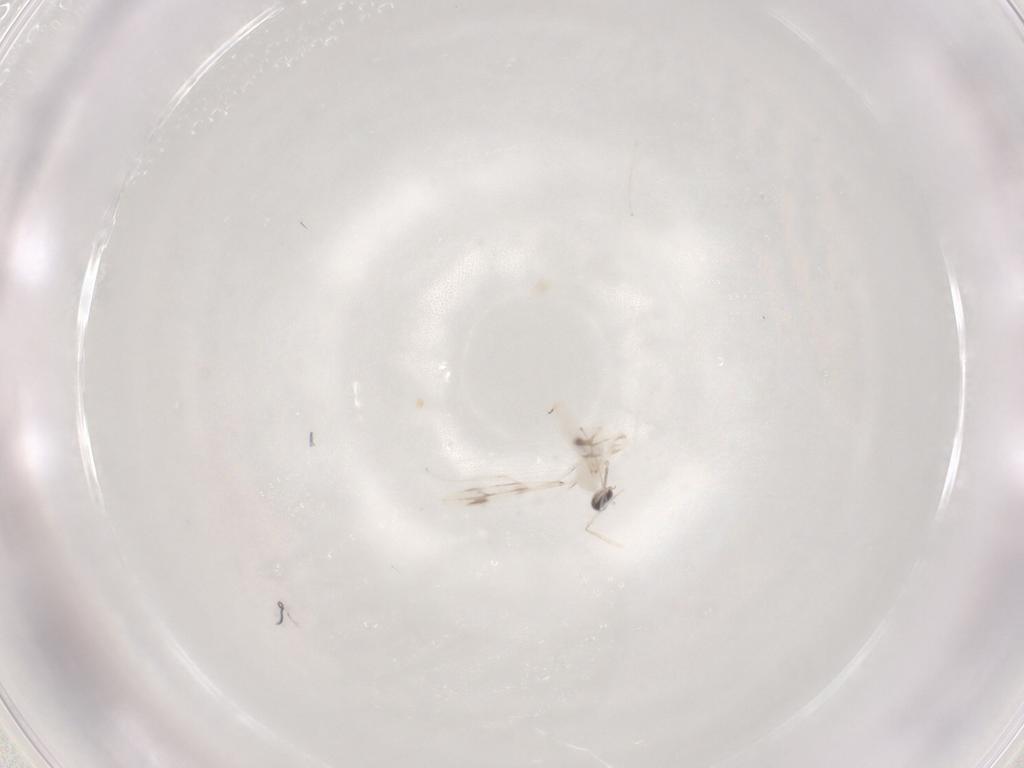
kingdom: Animalia
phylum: Arthropoda
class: Insecta
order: Diptera
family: Cecidomyiidae
